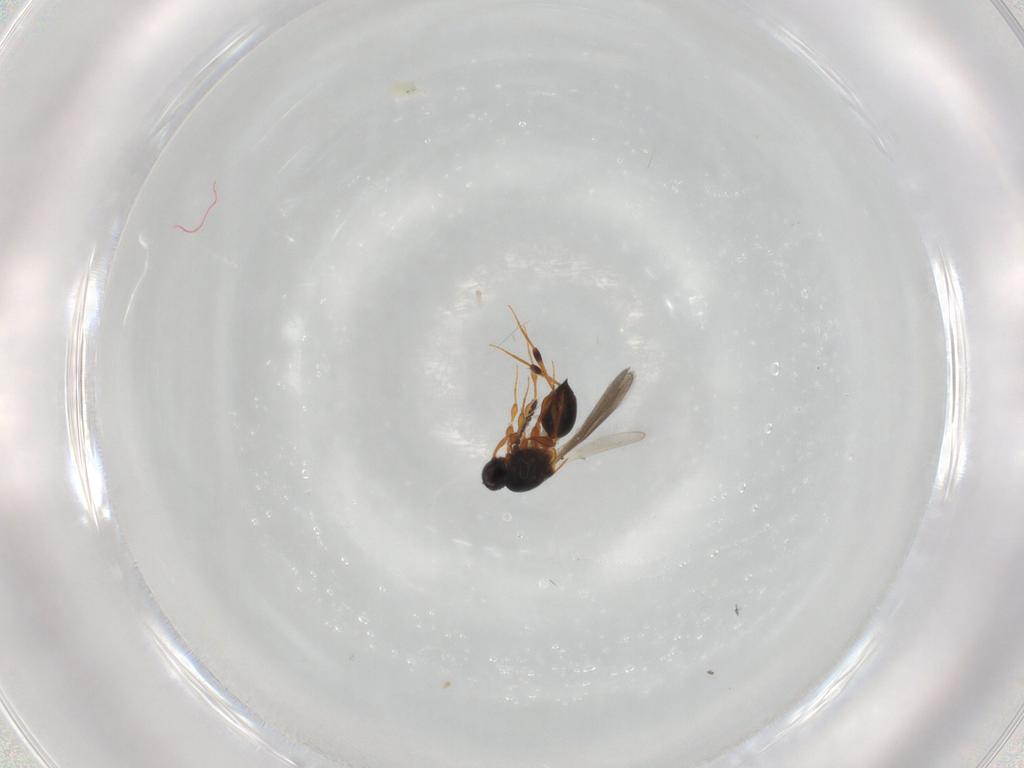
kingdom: Animalia
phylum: Arthropoda
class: Insecta
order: Hymenoptera
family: Platygastridae
